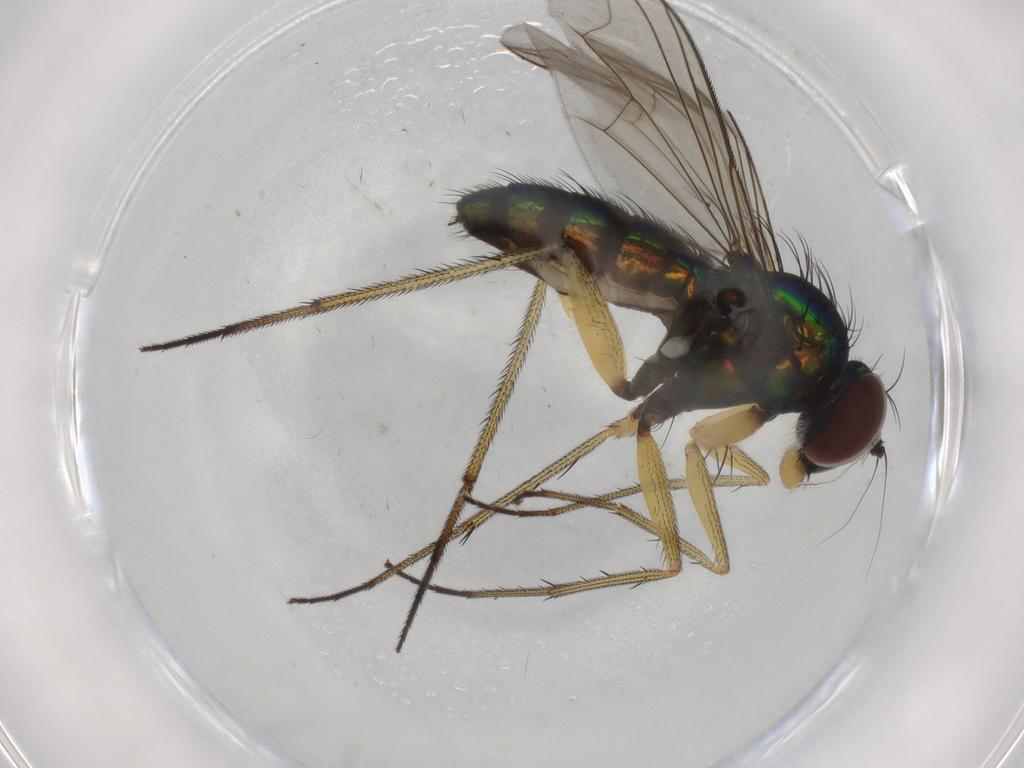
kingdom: Animalia
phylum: Arthropoda
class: Insecta
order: Diptera
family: Dolichopodidae
